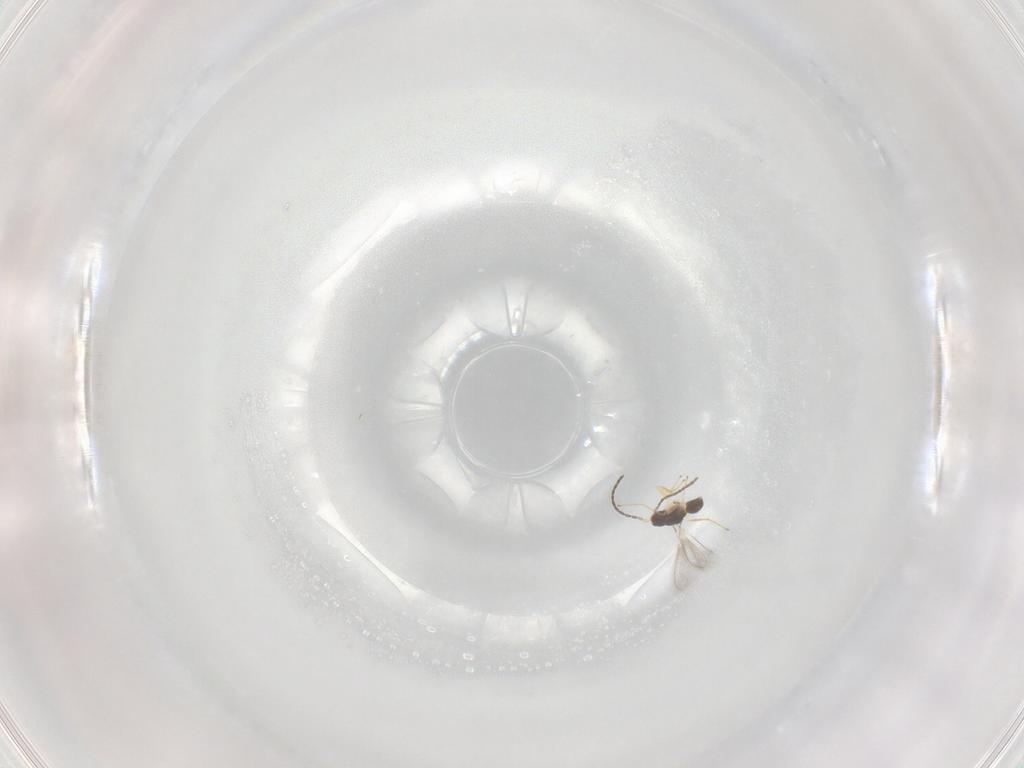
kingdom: Animalia
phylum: Arthropoda
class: Insecta
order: Hymenoptera
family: Mymaridae
